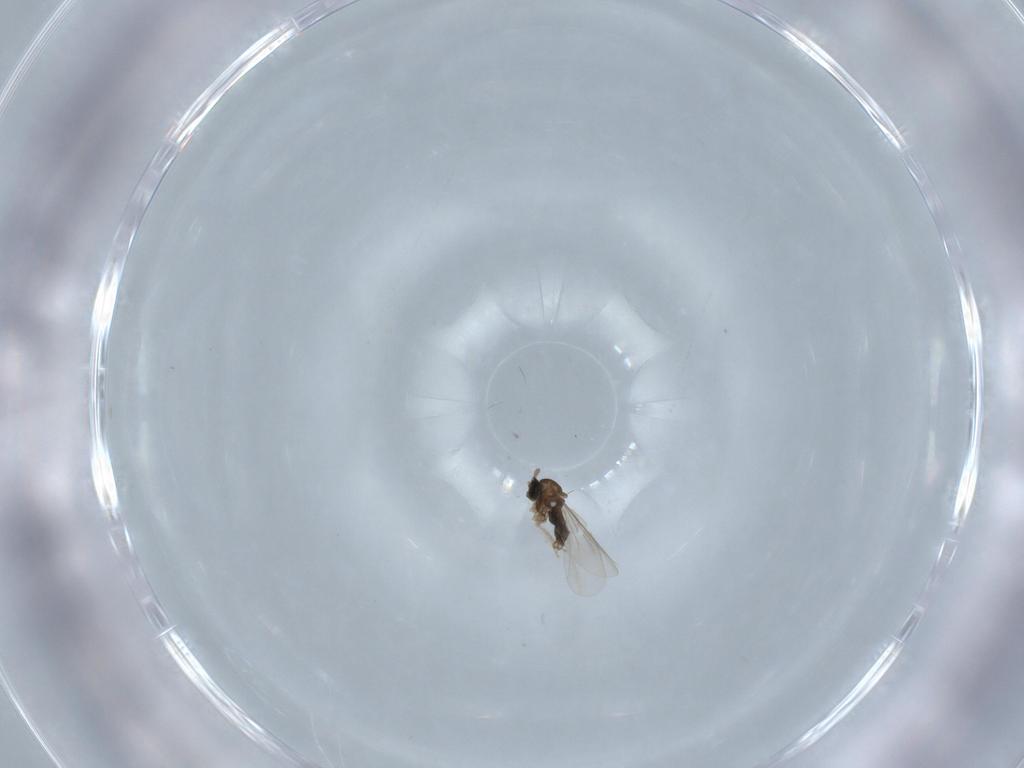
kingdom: Animalia
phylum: Arthropoda
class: Insecta
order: Diptera
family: Cecidomyiidae
